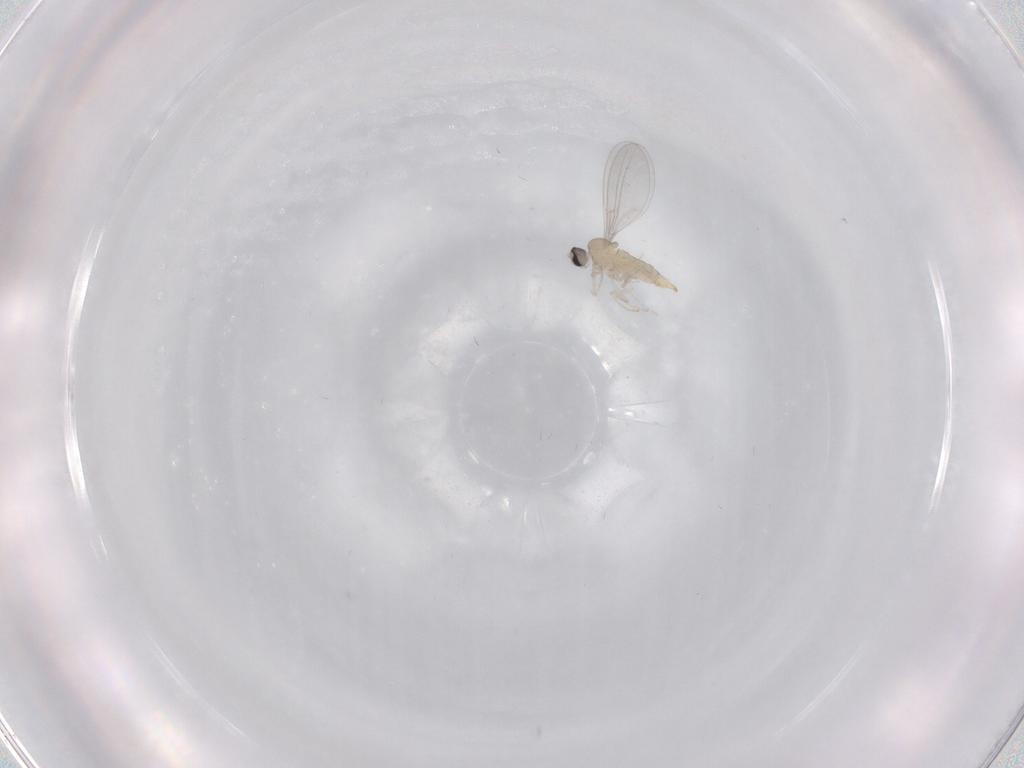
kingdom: Animalia
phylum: Arthropoda
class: Insecta
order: Diptera
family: Cecidomyiidae
